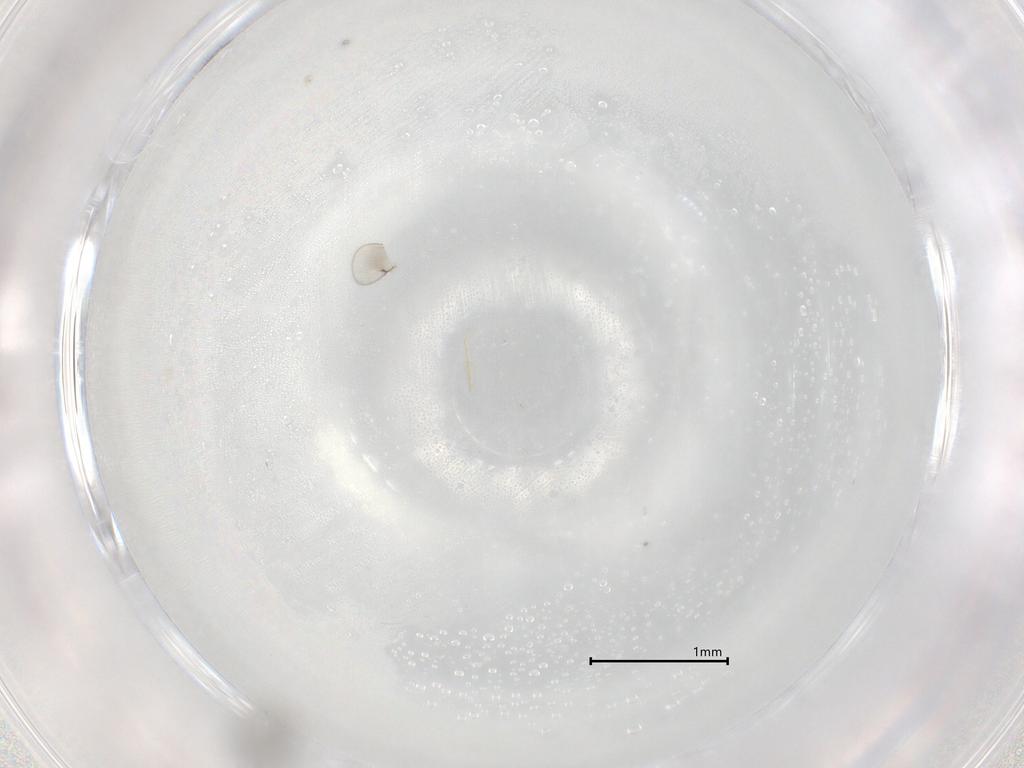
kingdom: Animalia
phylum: Arthropoda
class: Insecta
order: Hymenoptera
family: Eulophidae
